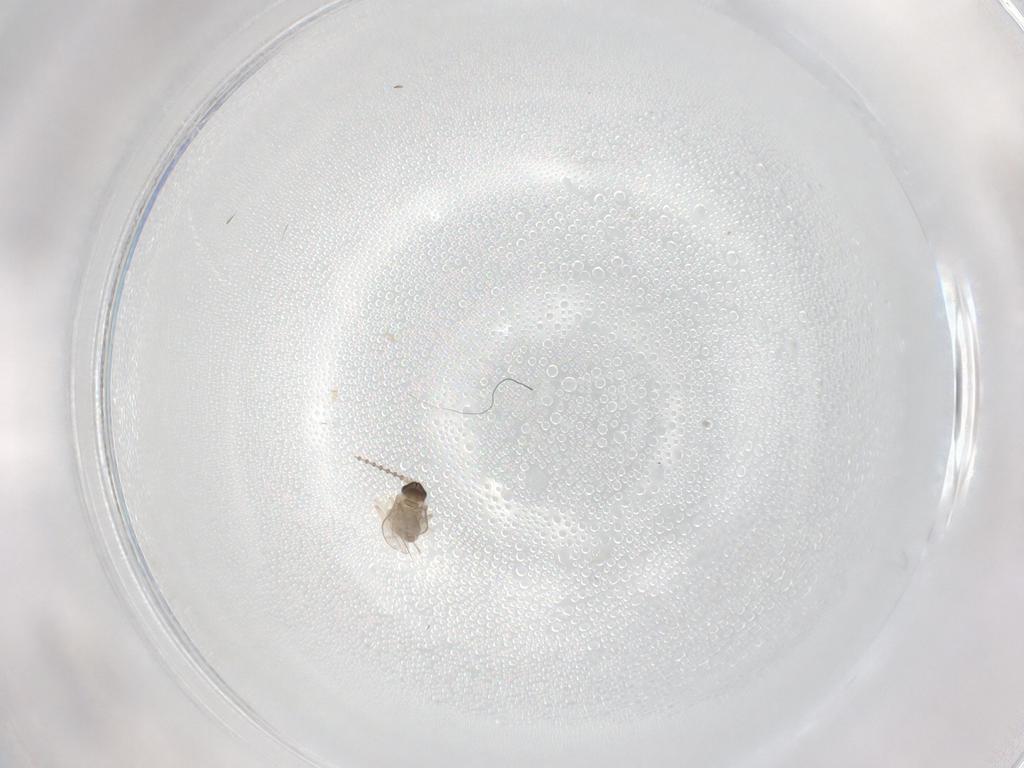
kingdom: Animalia
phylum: Arthropoda
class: Insecta
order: Diptera
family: Cecidomyiidae
